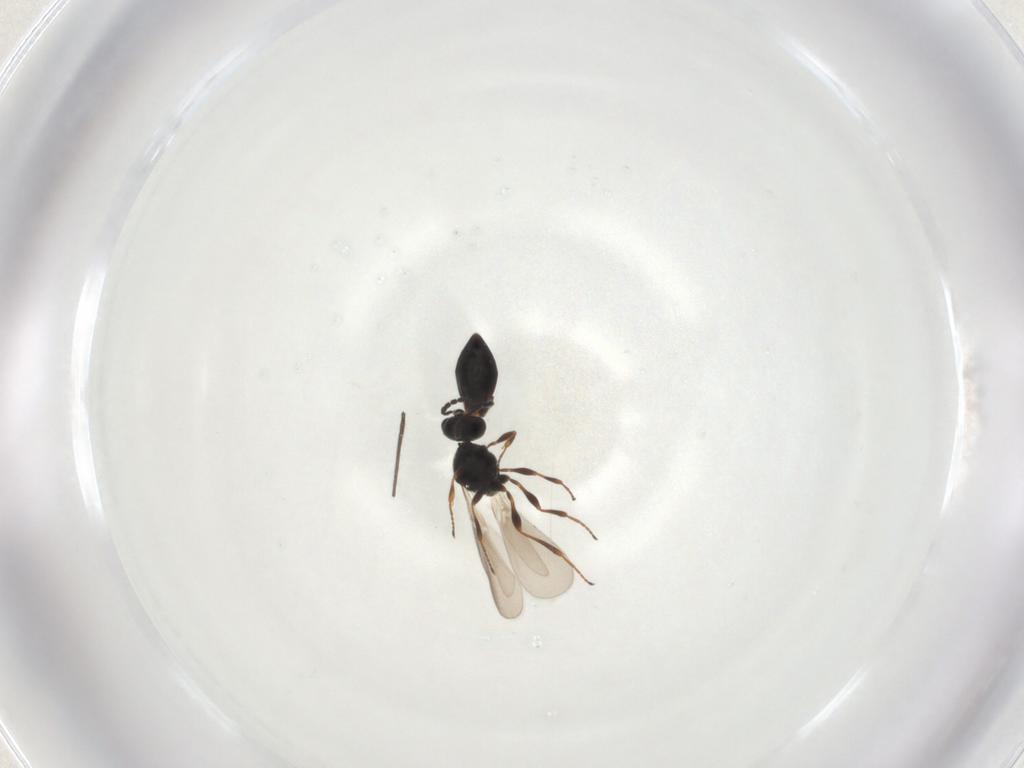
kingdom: Animalia
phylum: Arthropoda
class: Insecta
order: Hymenoptera
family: Platygastridae
